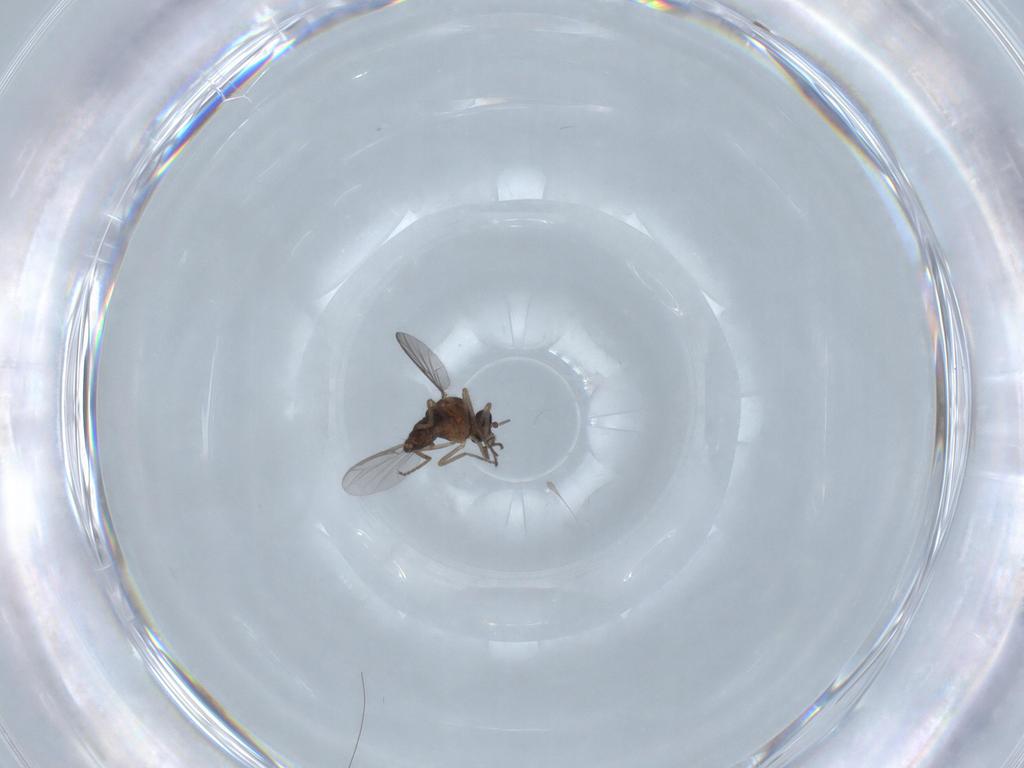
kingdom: Animalia
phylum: Arthropoda
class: Insecta
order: Diptera
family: Ceratopogonidae
